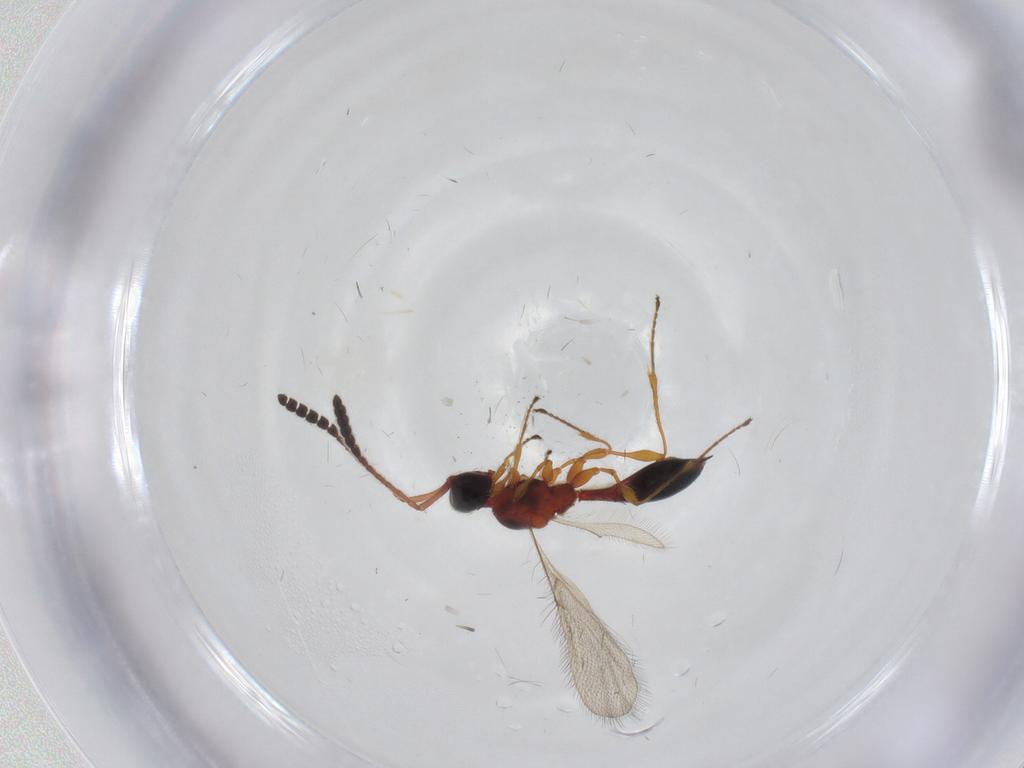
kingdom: Animalia
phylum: Arthropoda
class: Insecta
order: Hymenoptera
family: Diapriidae
